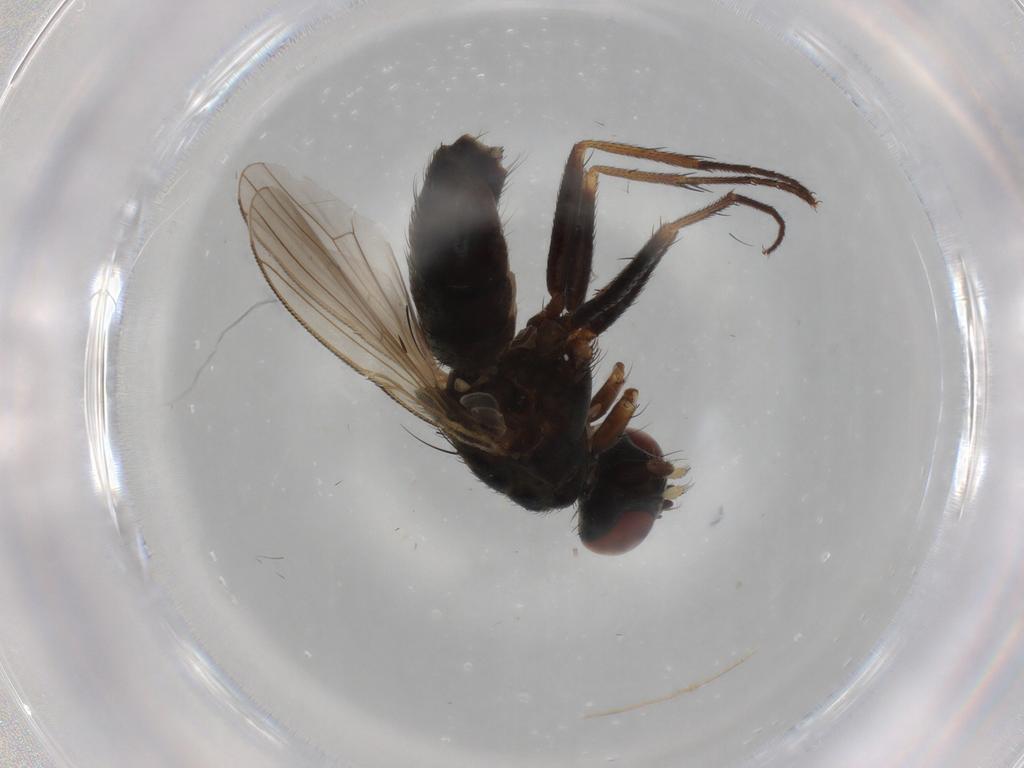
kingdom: Animalia
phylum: Arthropoda
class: Insecta
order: Diptera
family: Muscidae
